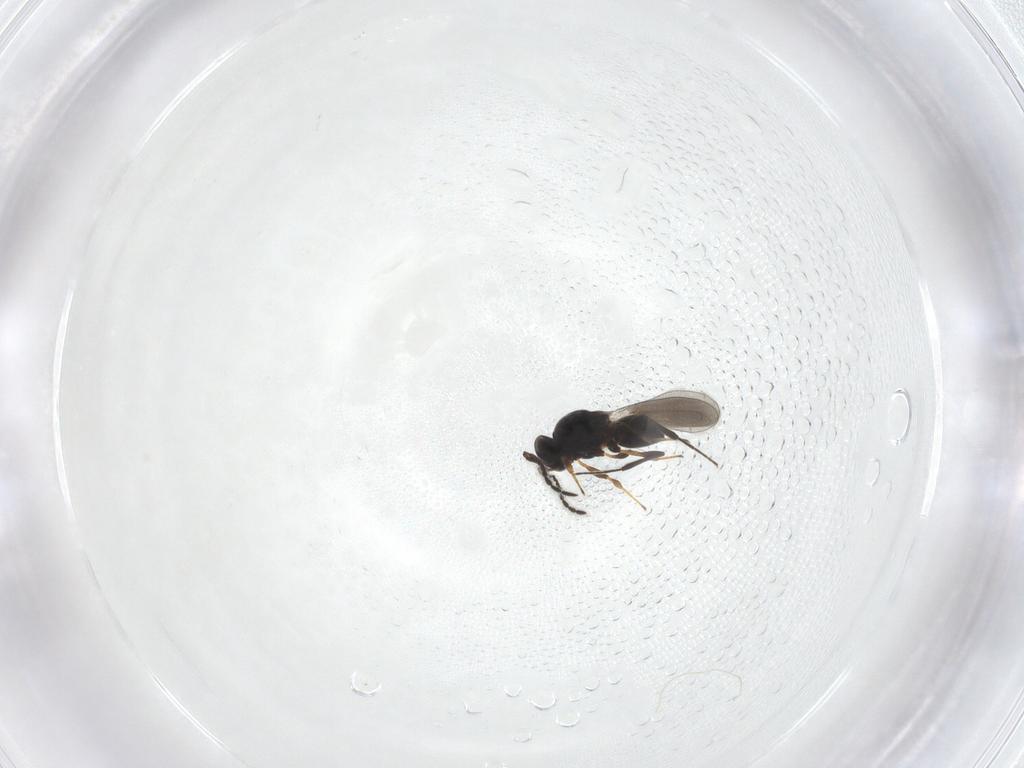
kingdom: Animalia
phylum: Arthropoda
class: Insecta
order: Hymenoptera
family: Platygastridae
